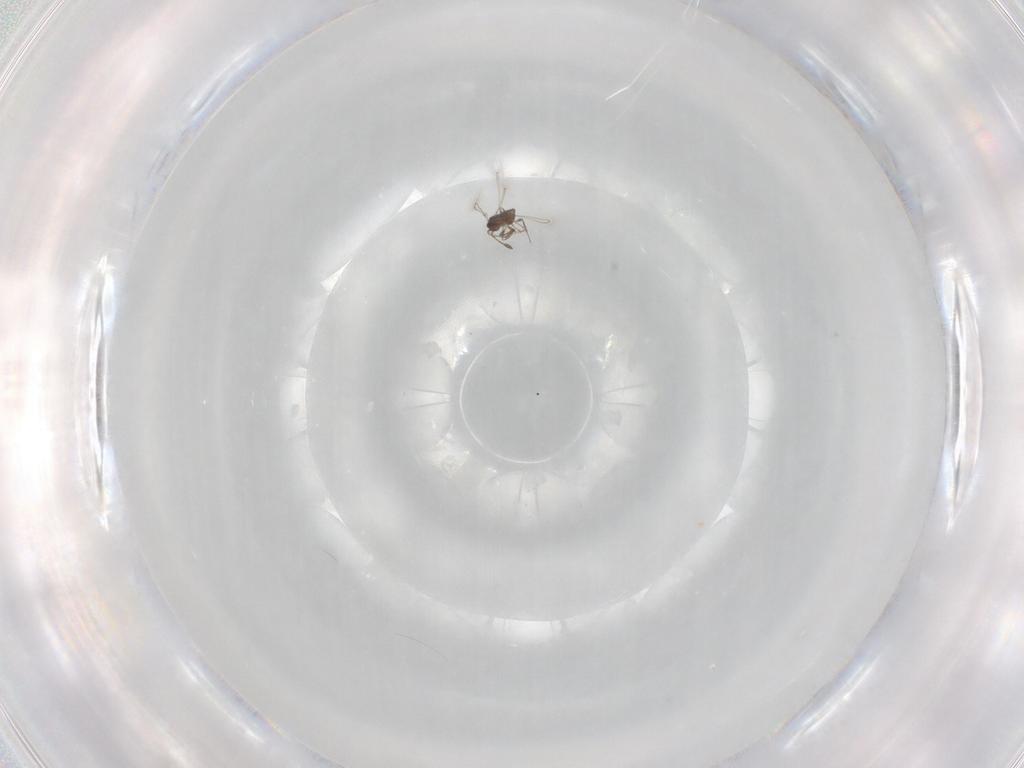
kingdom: Animalia
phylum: Arthropoda
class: Insecta
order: Hymenoptera
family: Mymaridae
